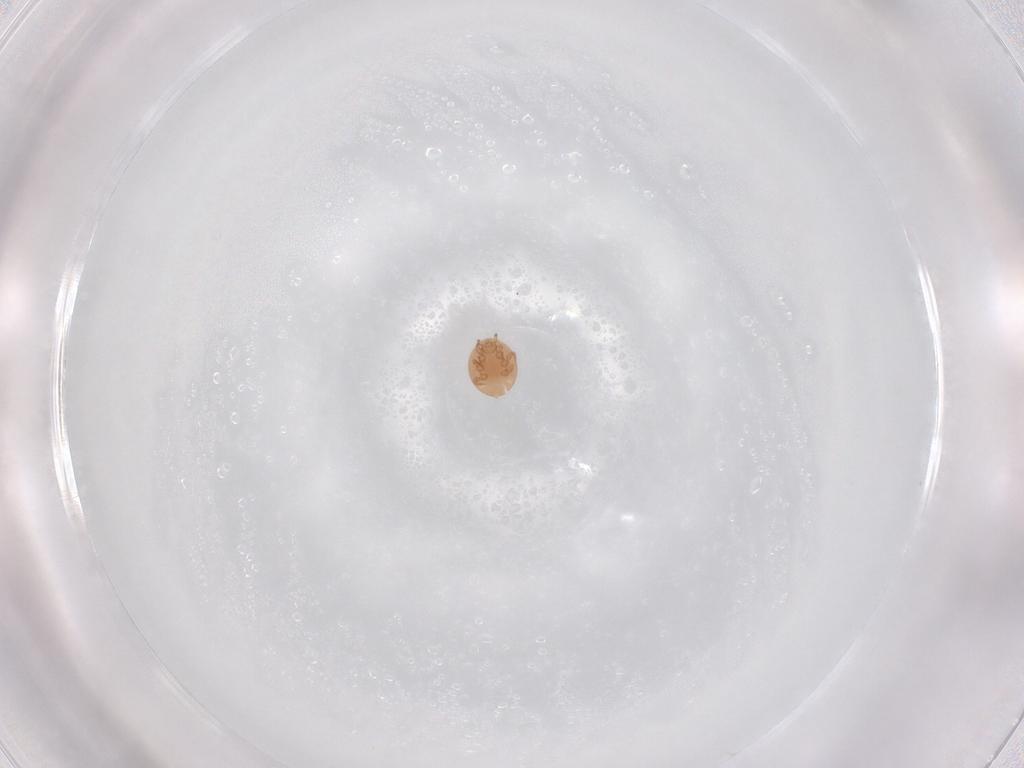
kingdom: Animalia
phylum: Arthropoda
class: Arachnida
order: Mesostigmata
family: Trematuridae
